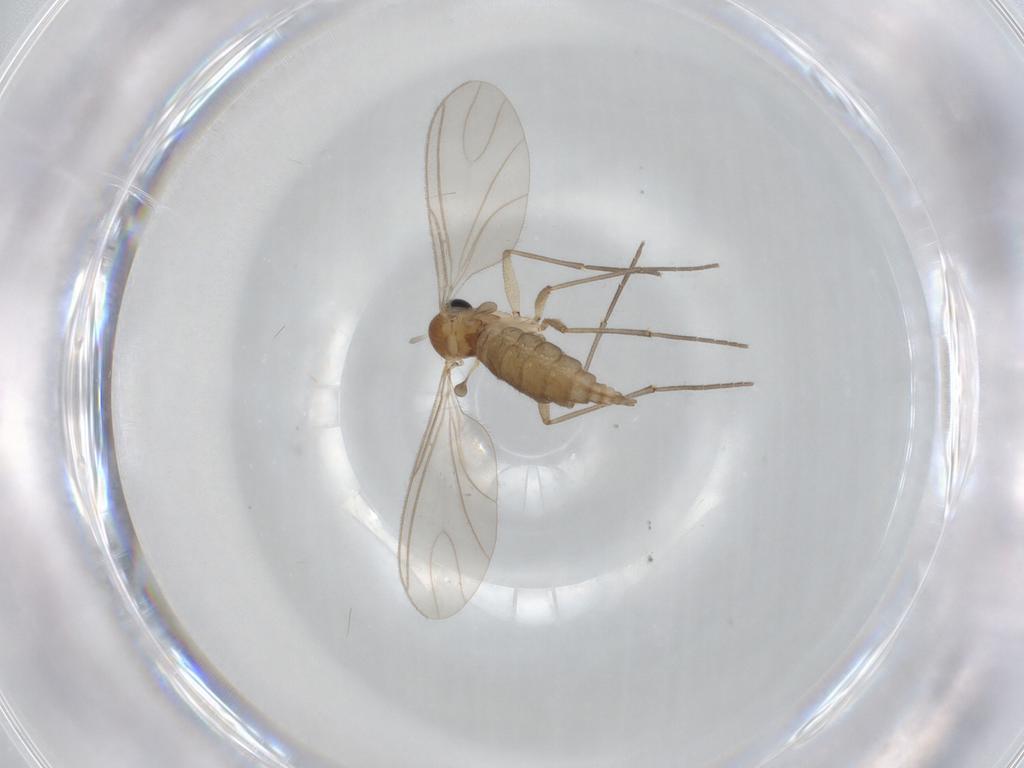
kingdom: Animalia
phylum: Arthropoda
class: Insecta
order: Diptera
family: Sciaridae
